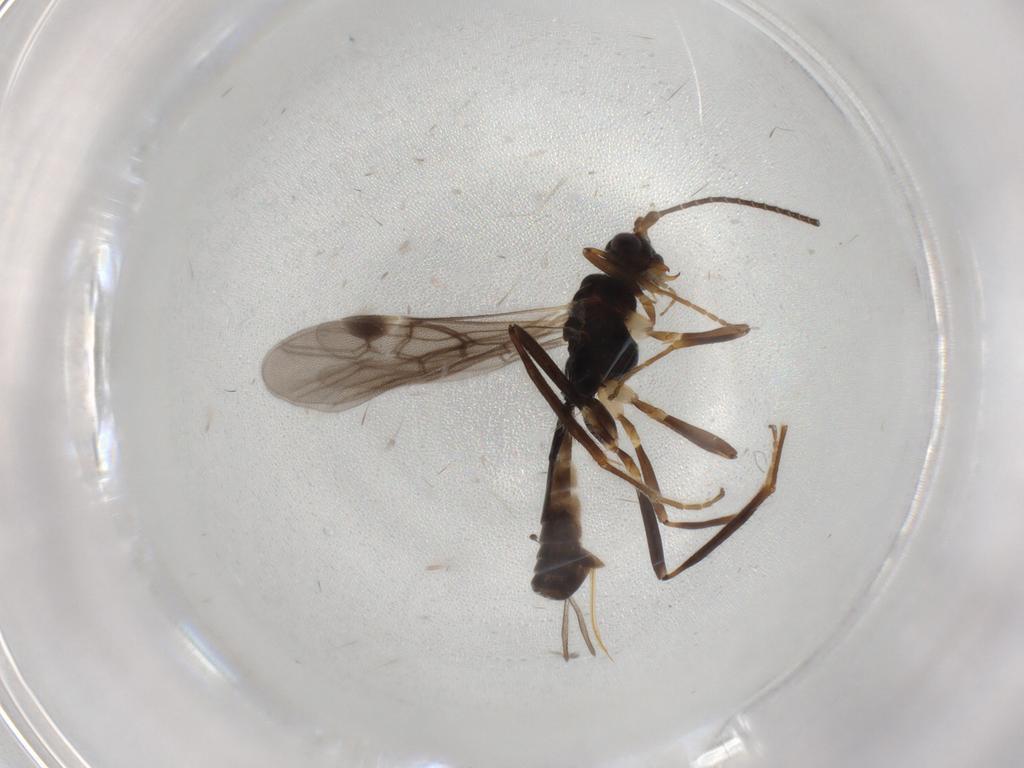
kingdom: Animalia
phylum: Arthropoda
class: Insecta
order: Hymenoptera
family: Braconidae
